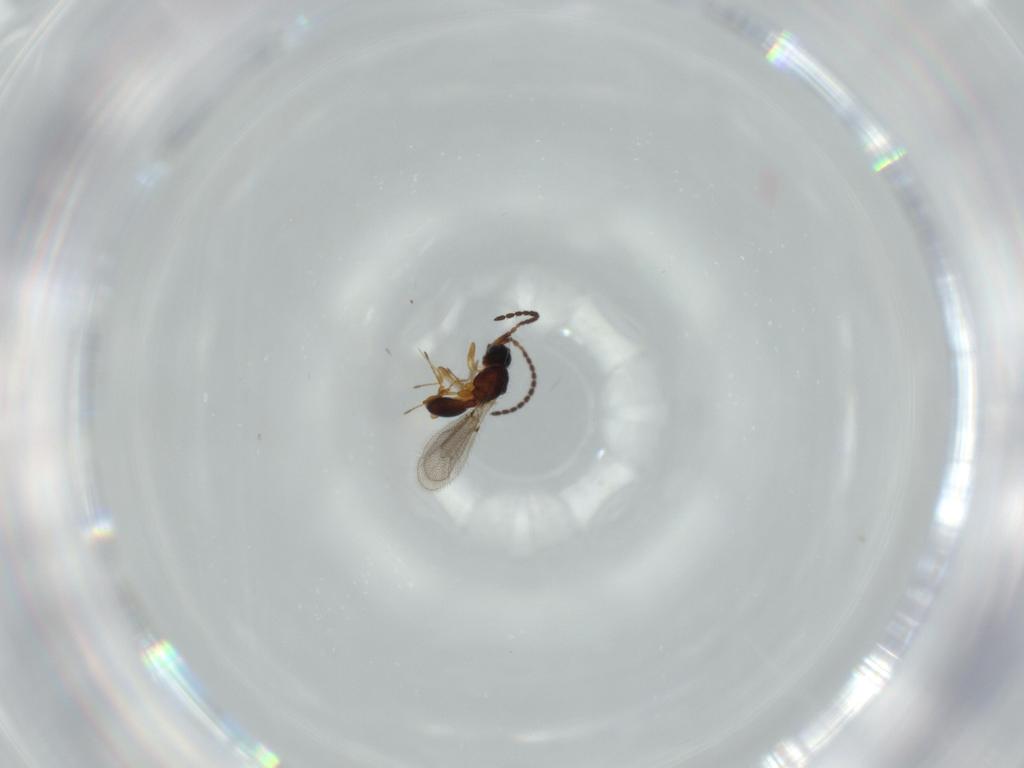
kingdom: Animalia
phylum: Arthropoda
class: Insecta
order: Hymenoptera
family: Diapriidae
